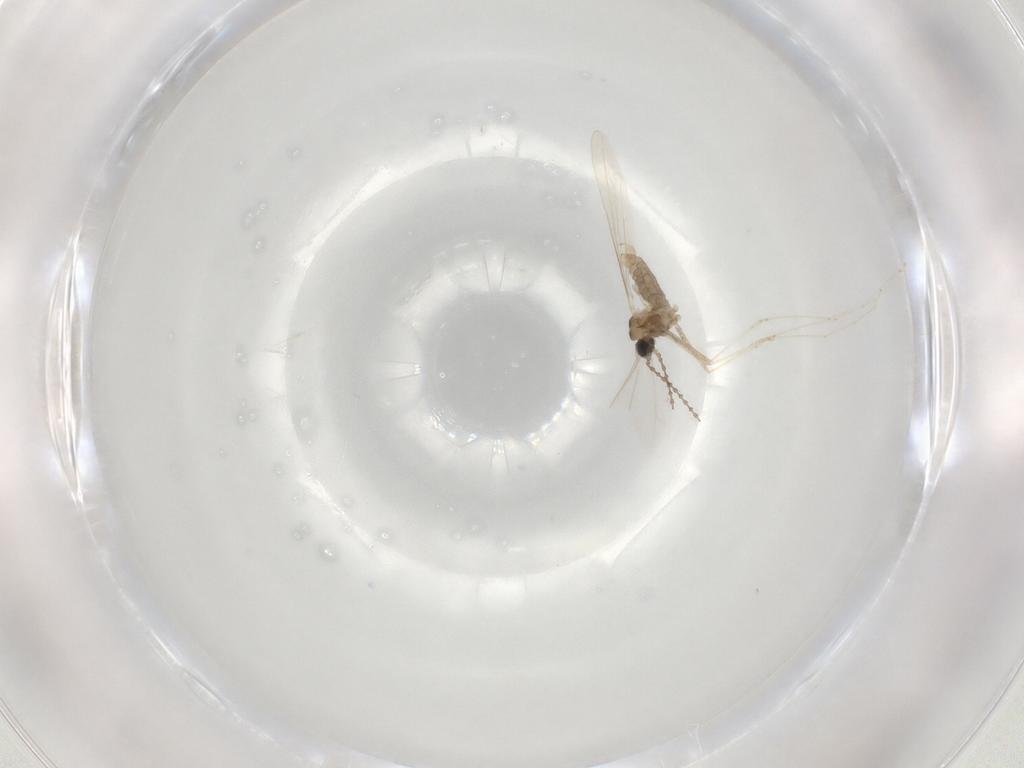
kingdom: Animalia
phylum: Arthropoda
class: Insecta
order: Diptera
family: Cecidomyiidae
